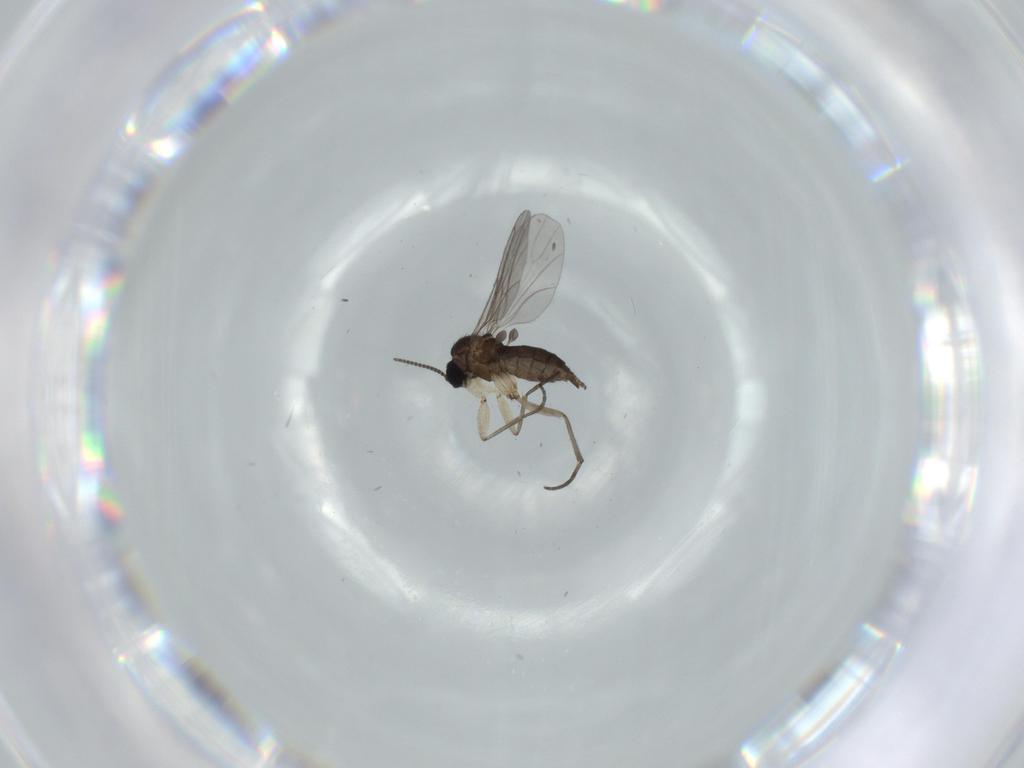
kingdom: Animalia
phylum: Arthropoda
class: Insecta
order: Diptera
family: Sciaridae
